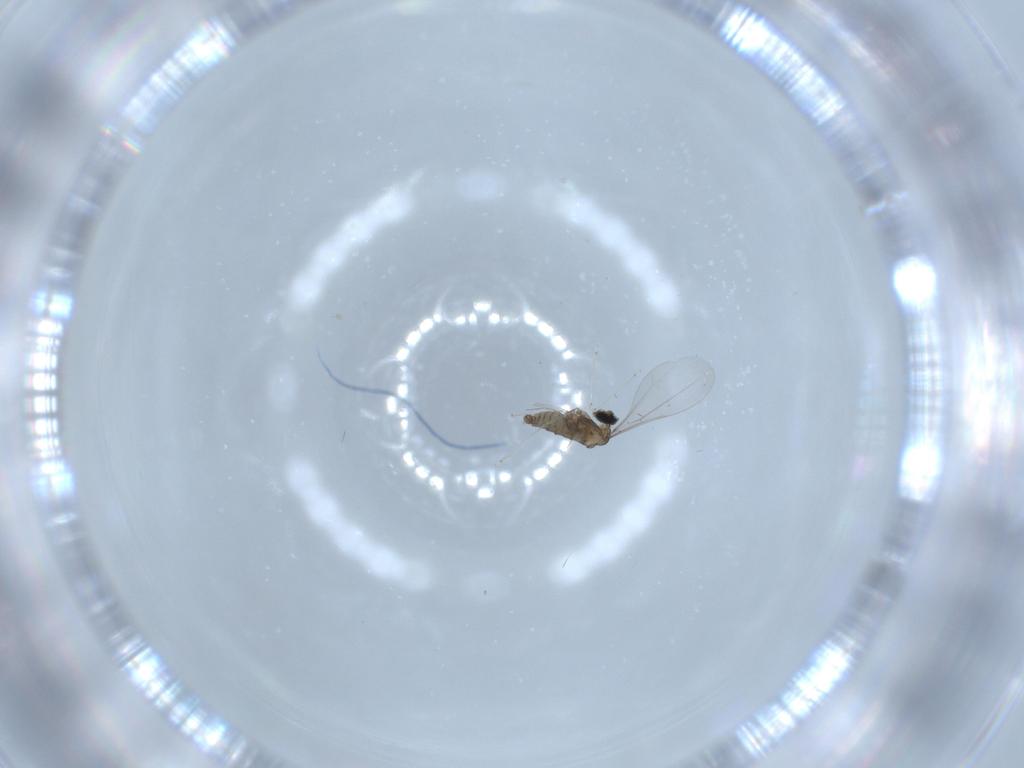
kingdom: Animalia
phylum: Arthropoda
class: Insecta
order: Diptera
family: Cecidomyiidae
